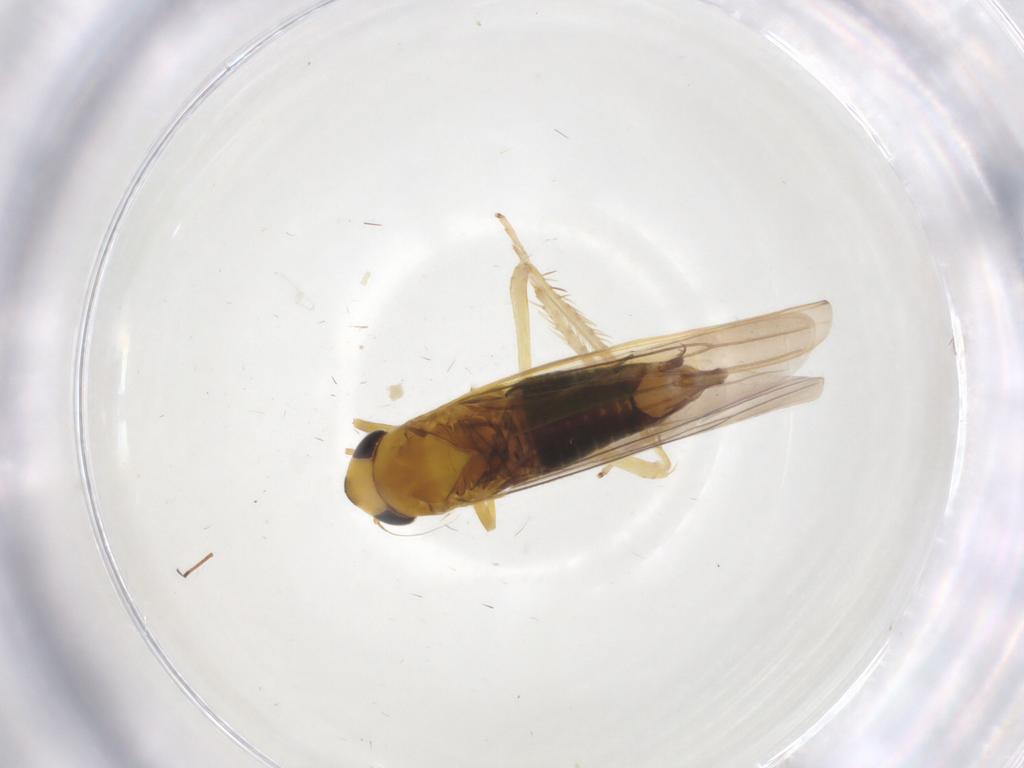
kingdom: Animalia
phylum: Arthropoda
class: Insecta
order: Hemiptera
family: Cicadellidae
